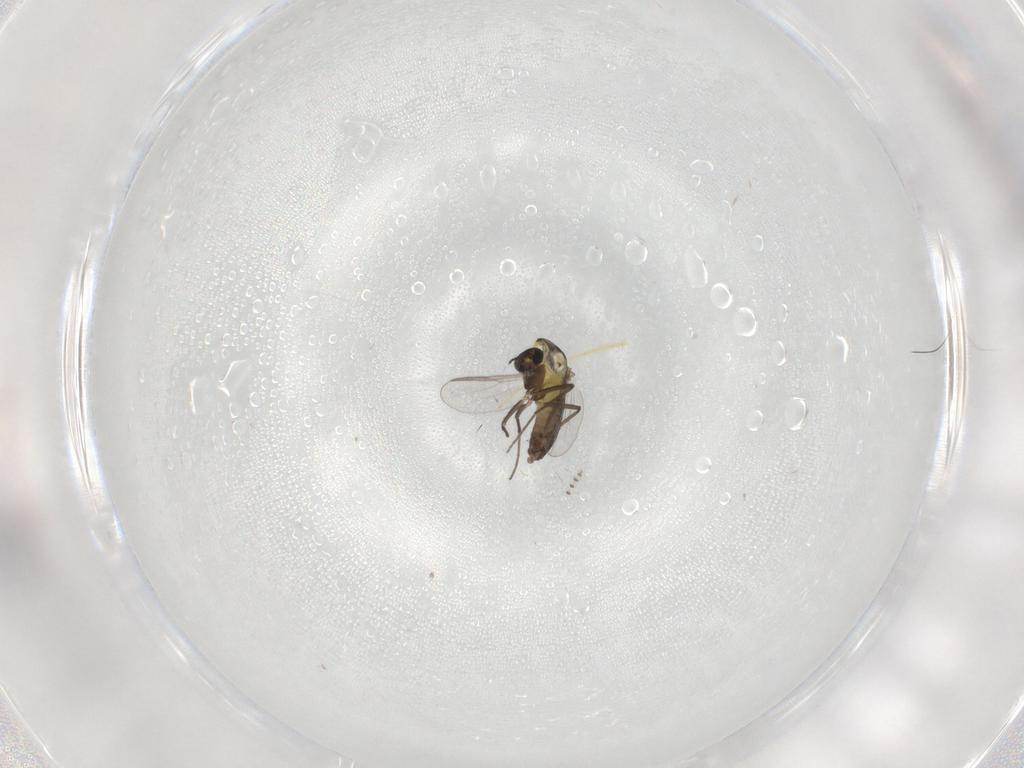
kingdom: Animalia
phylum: Arthropoda
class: Insecta
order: Diptera
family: Chironomidae
